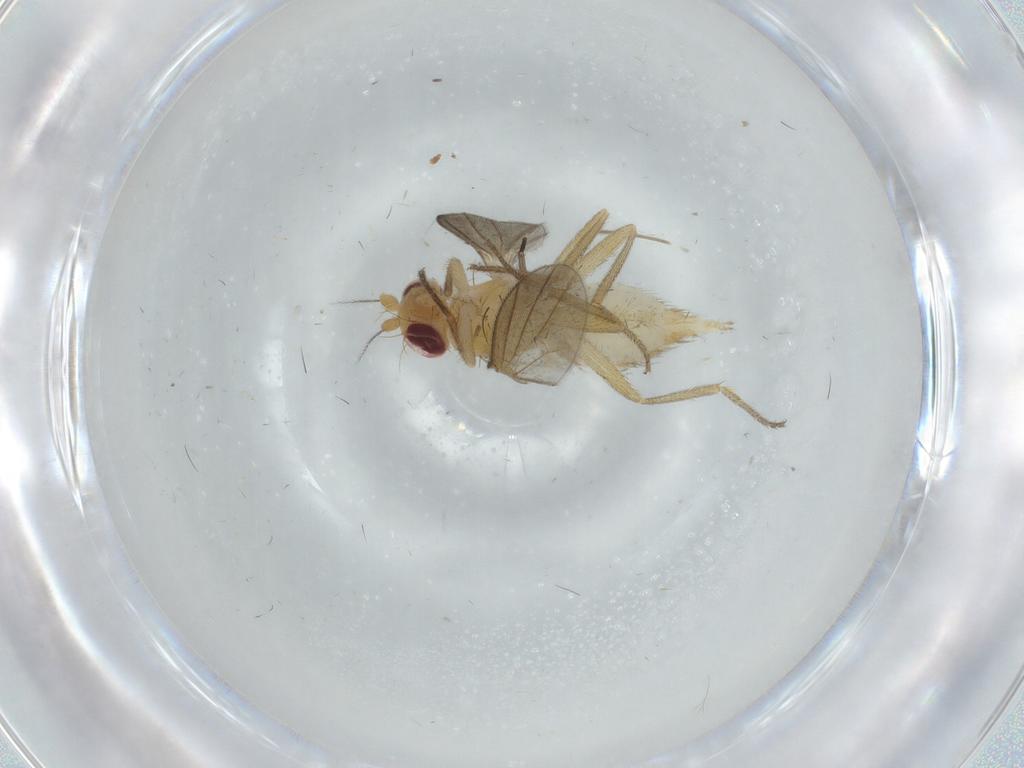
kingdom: Animalia
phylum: Arthropoda
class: Insecta
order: Diptera
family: Clusiidae
